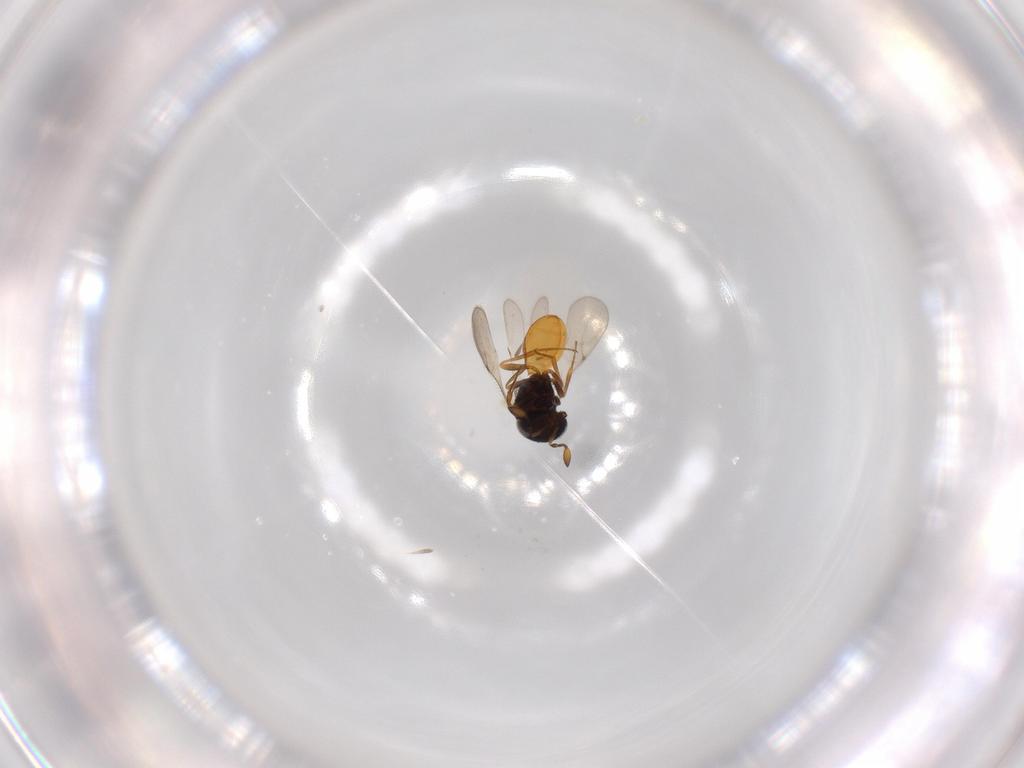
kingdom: Animalia
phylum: Arthropoda
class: Insecta
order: Hymenoptera
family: Scelionidae
